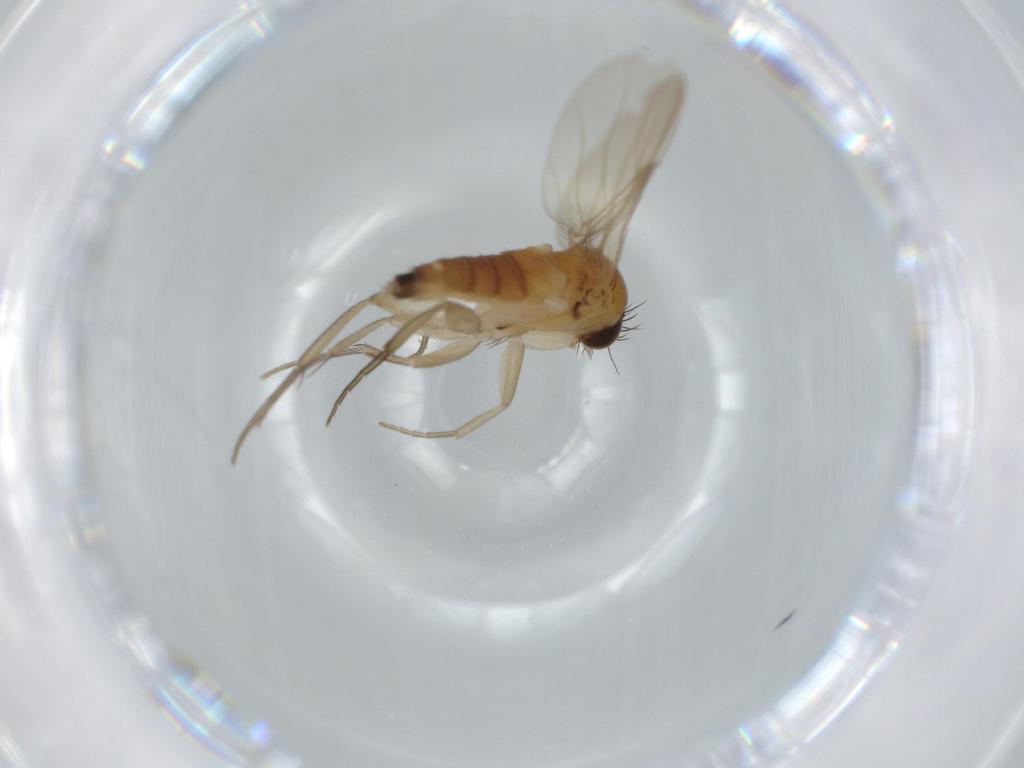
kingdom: Animalia
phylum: Arthropoda
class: Insecta
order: Diptera
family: Phoridae
